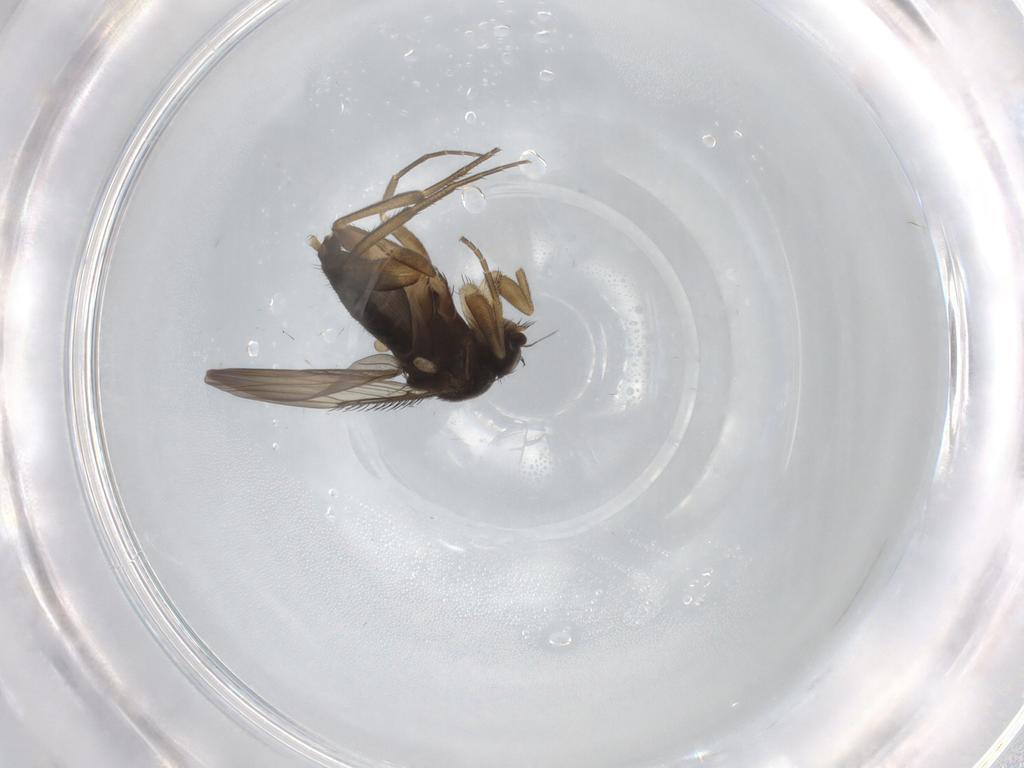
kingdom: Animalia
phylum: Arthropoda
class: Insecta
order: Diptera
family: Phoridae
